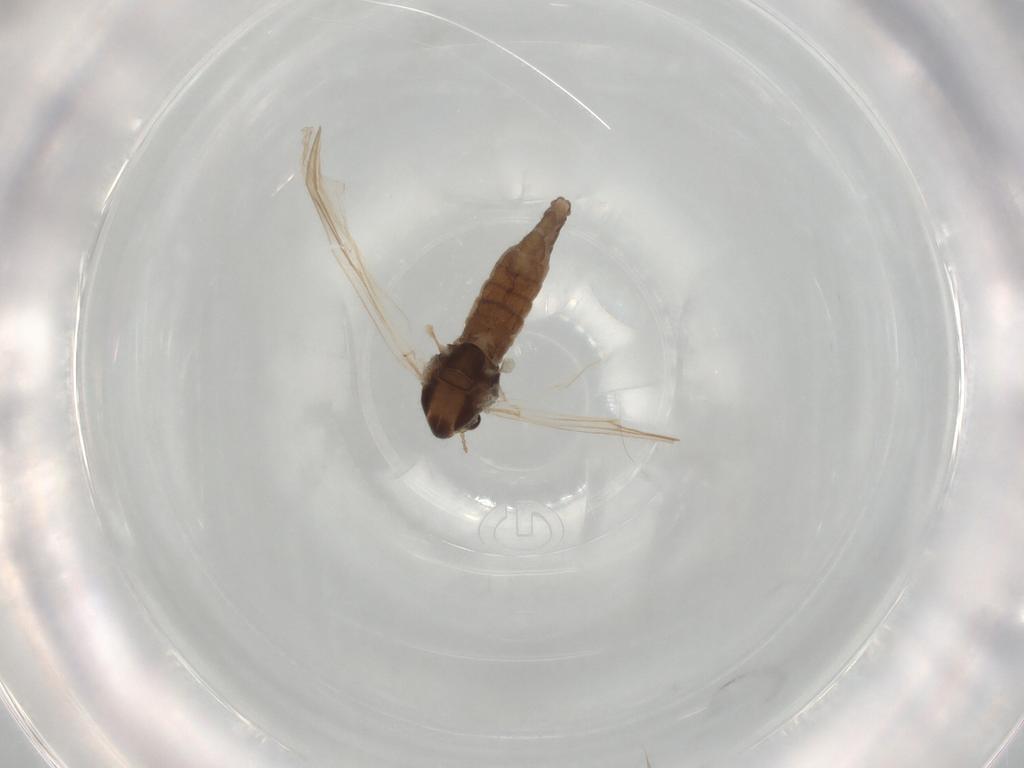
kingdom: Animalia
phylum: Arthropoda
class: Insecta
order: Diptera
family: Chironomidae
